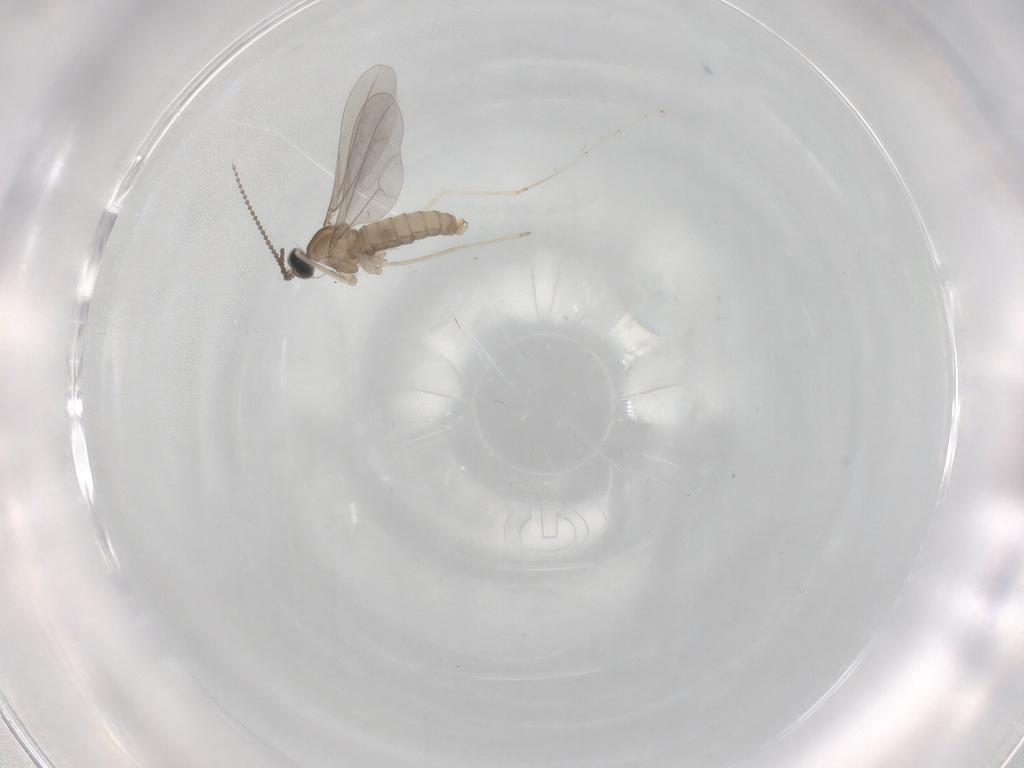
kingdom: Animalia
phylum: Arthropoda
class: Insecta
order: Diptera
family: Cecidomyiidae
